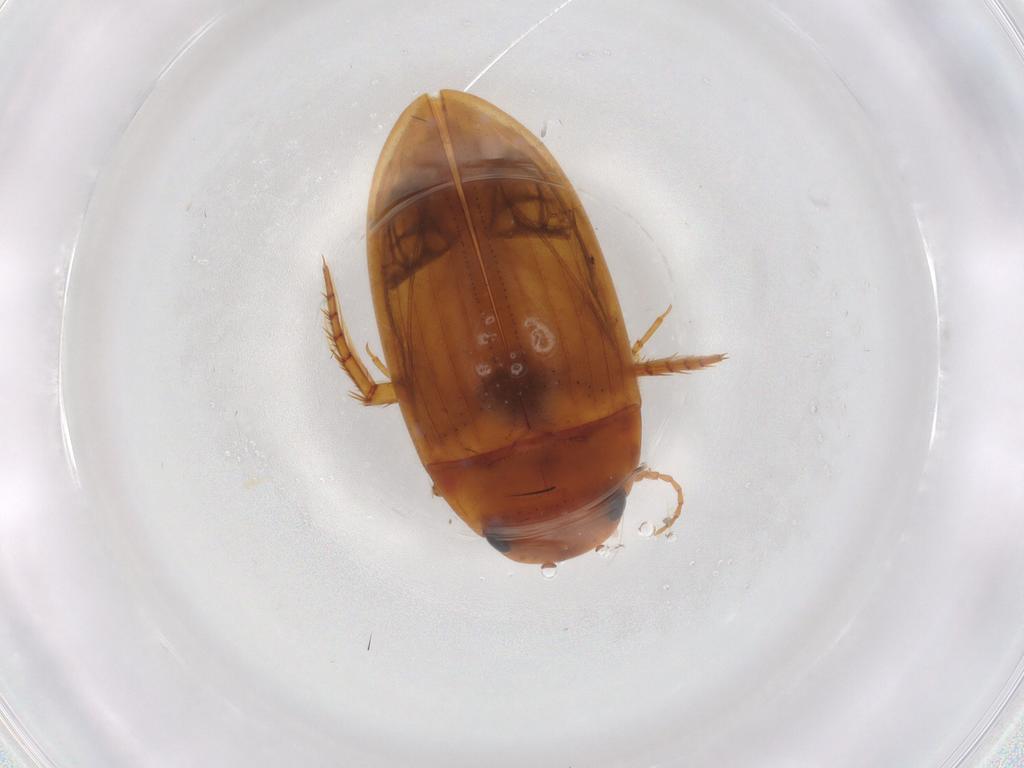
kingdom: Animalia
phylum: Arthropoda
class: Insecta
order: Coleoptera
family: Dytiscidae
